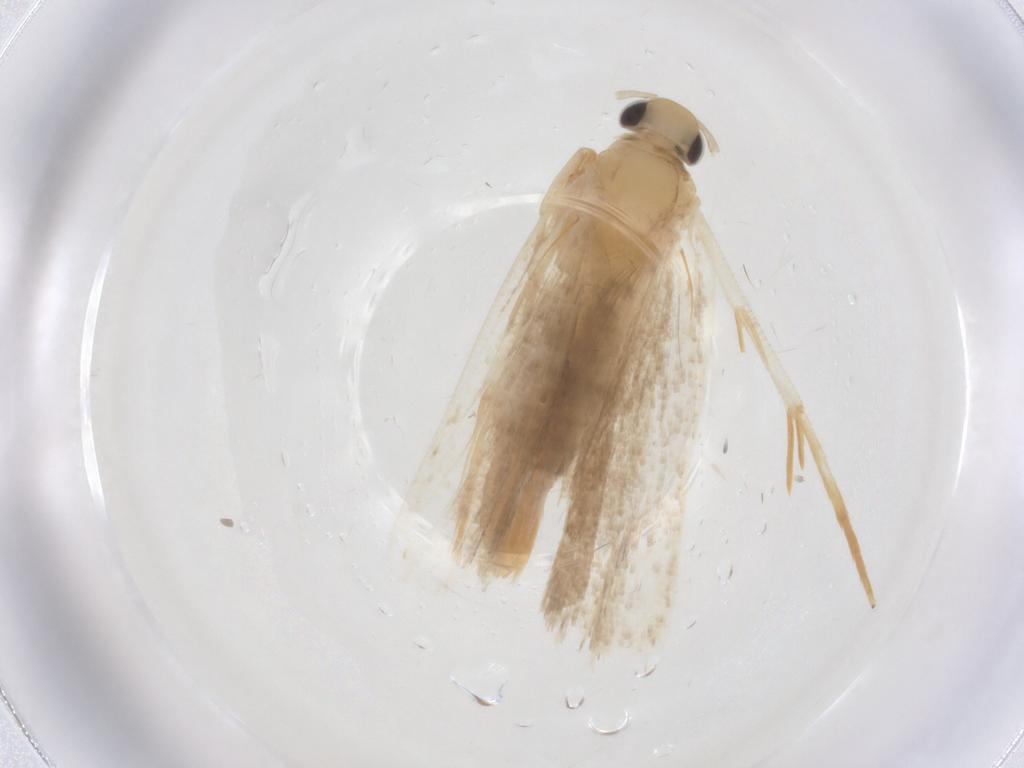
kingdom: Animalia
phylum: Arthropoda
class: Insecta
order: Lepidoptera
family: Gelechiidae
